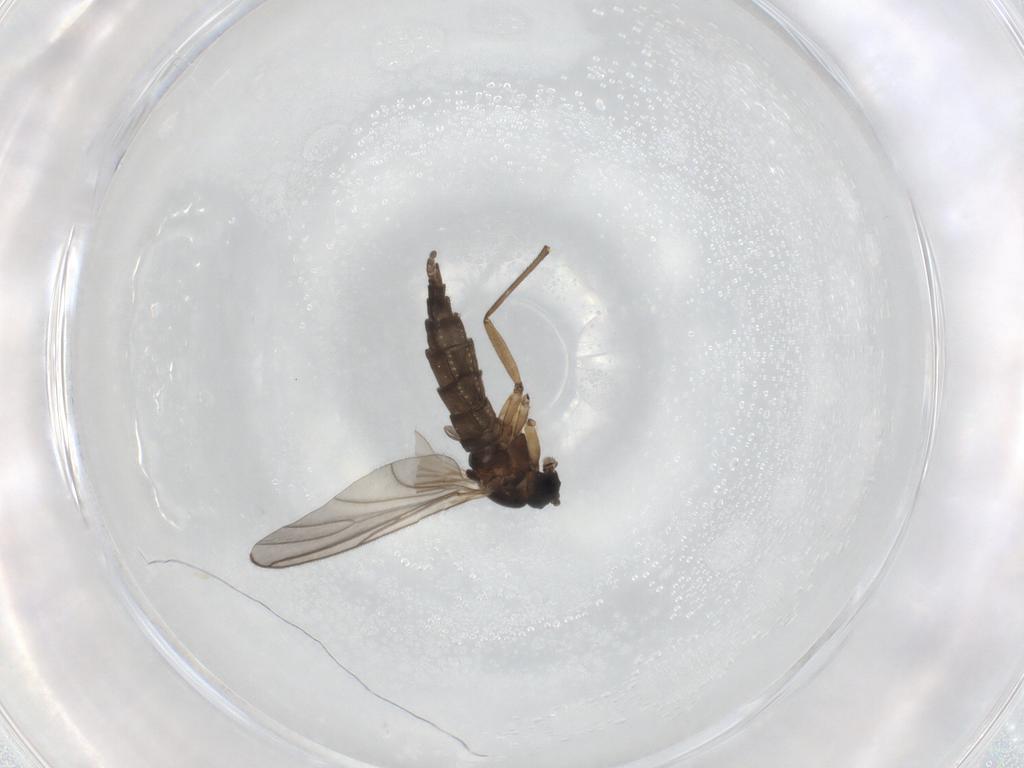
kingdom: Animalia
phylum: Arthropoda
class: Insecta
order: Diptera
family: Sciaridae
